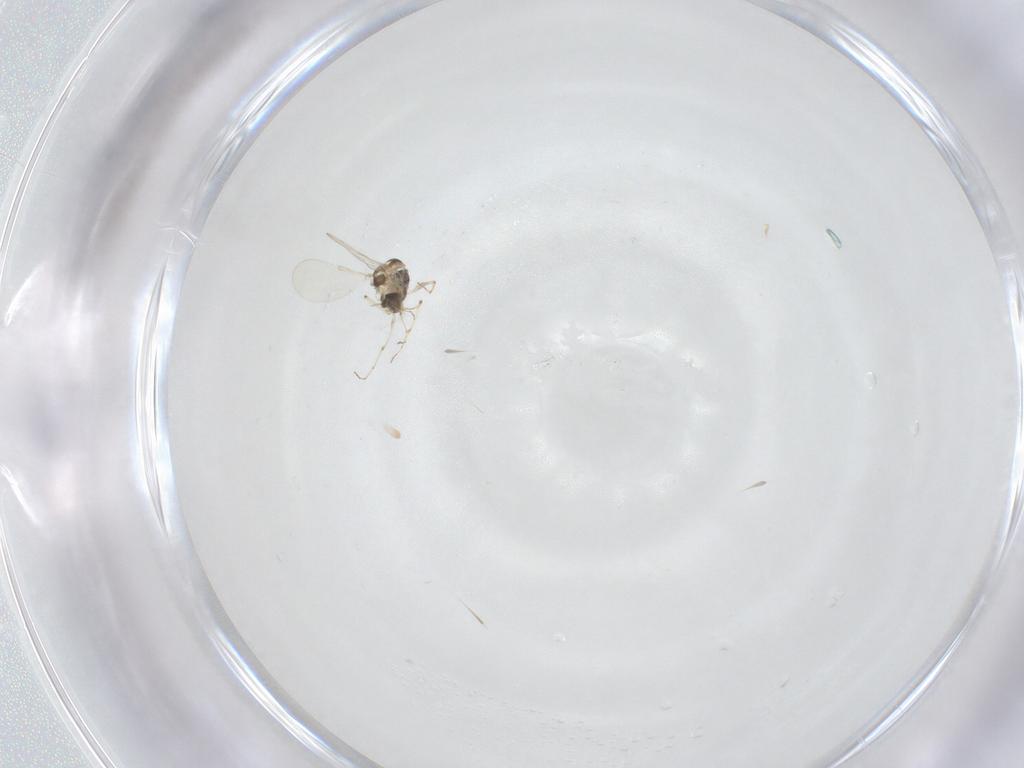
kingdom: Animalia
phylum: Arthropoda
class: Insecta
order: Diptera
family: Chironomidae
